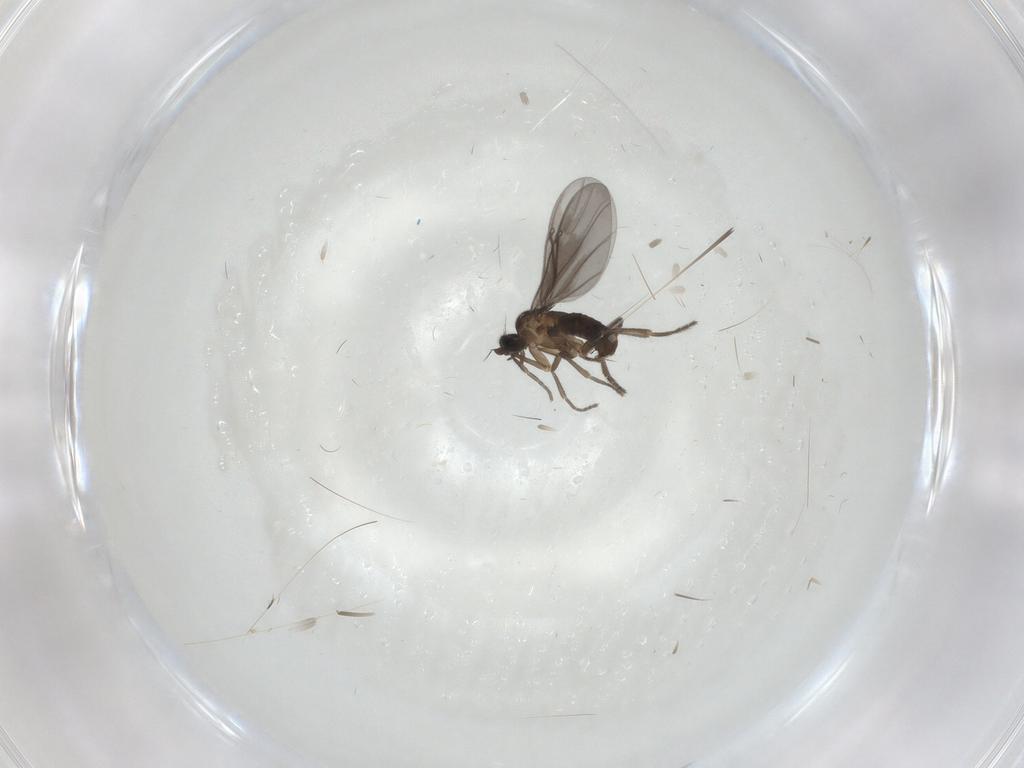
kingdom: Animalia
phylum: Arthropoda
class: Insecta
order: Diptera
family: Phoridae
